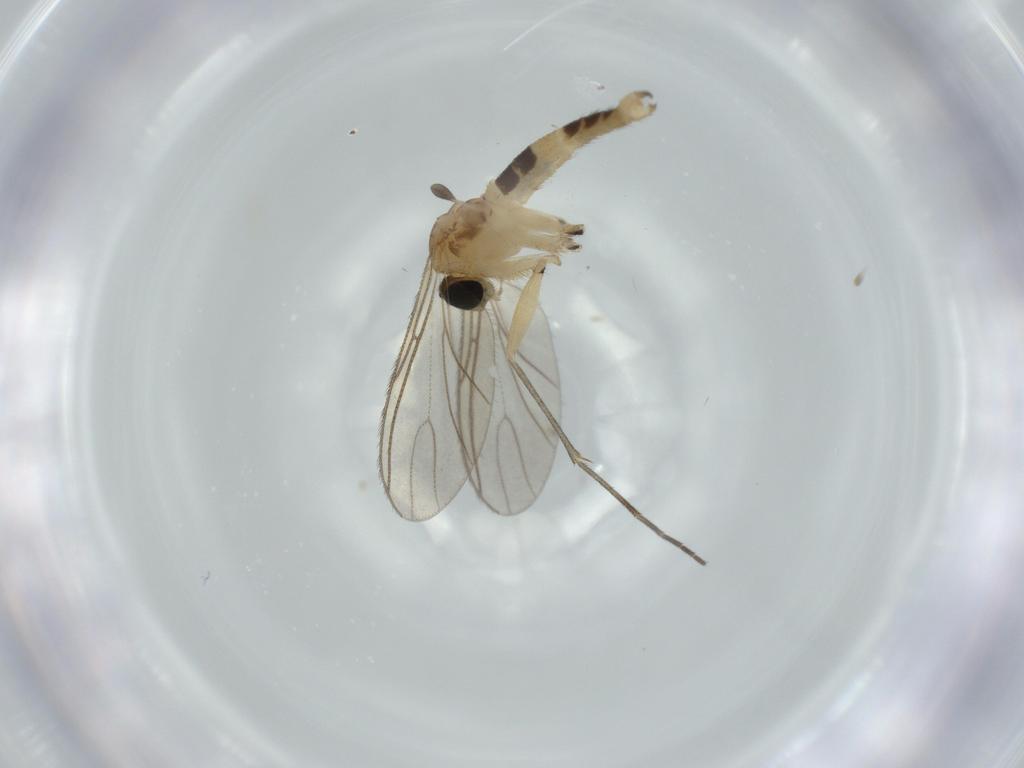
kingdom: Animalia
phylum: Arthropoda
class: Insecta
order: Diptera
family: Sciaridae
